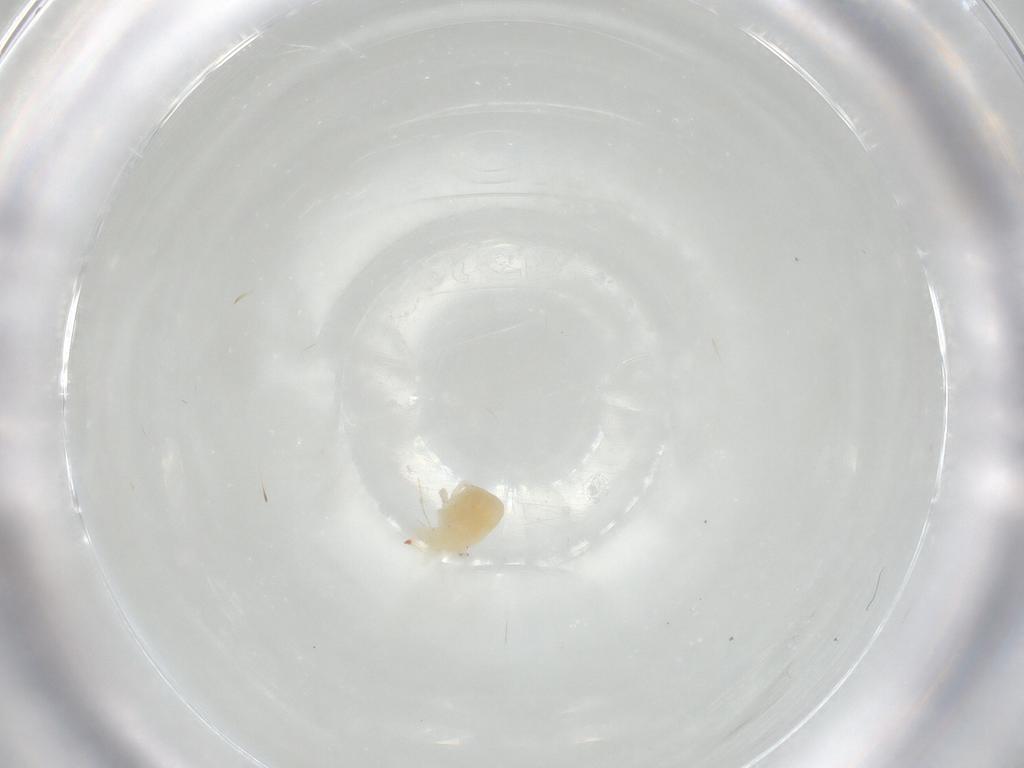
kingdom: Animalia
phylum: Arthropoda
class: Arachnida
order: Trombidiformes
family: Bdellidae
